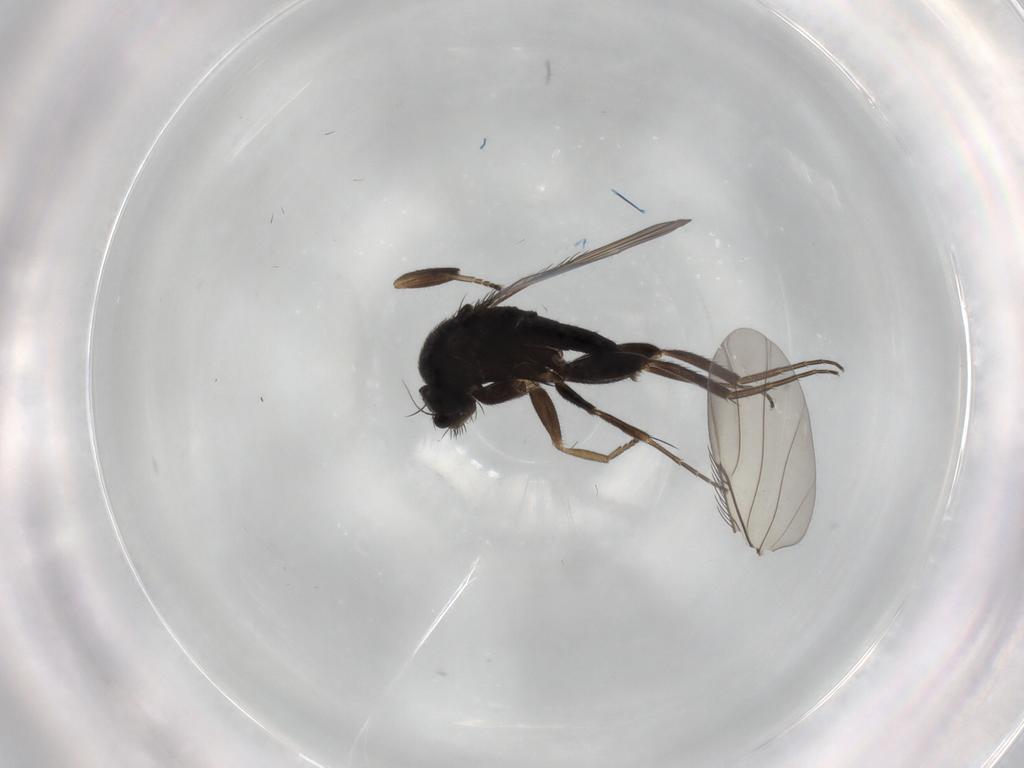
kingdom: Animalia
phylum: Arthropoda
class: Insecta
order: Diptera
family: Phoridae
